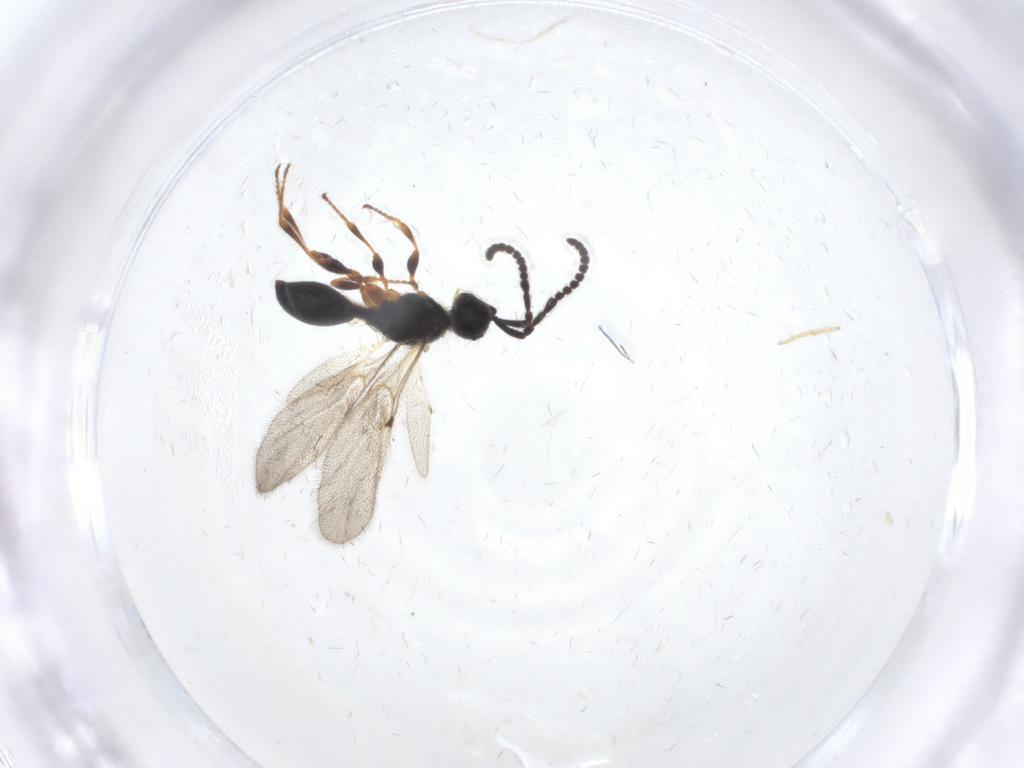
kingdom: Animalia
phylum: Arthropoda
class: Insecta
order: Hymenoptera
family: Diapriidae
